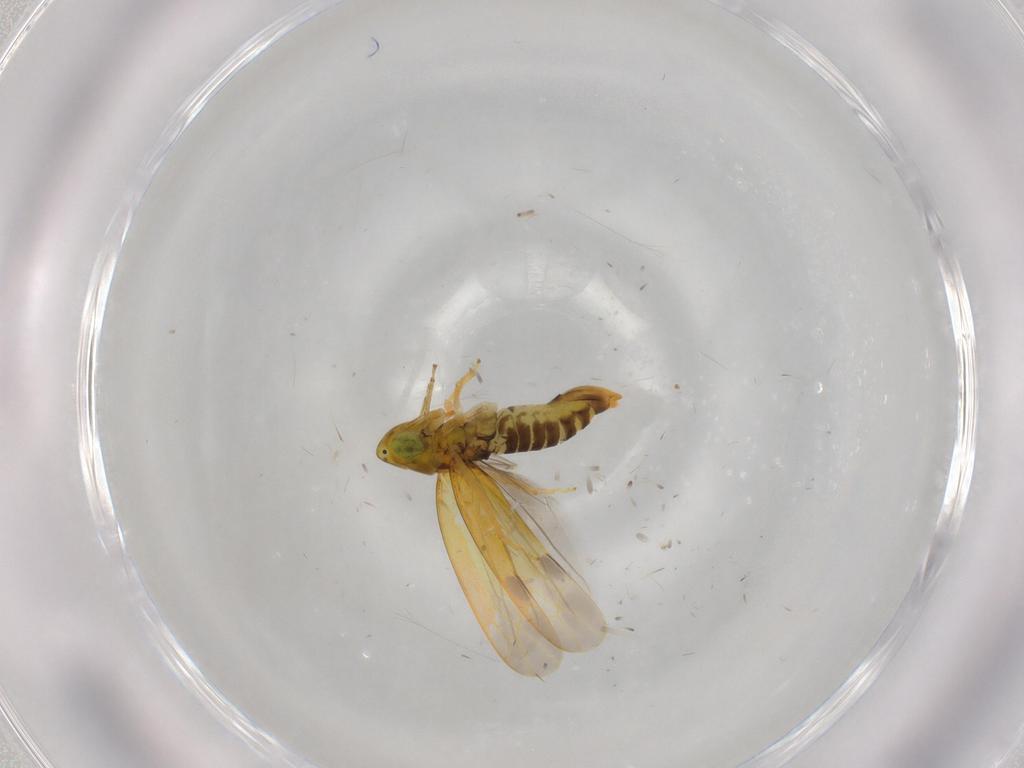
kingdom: Animalia
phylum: Arthropoda
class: Insecta
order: Hemiptera
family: Cicadellidae
